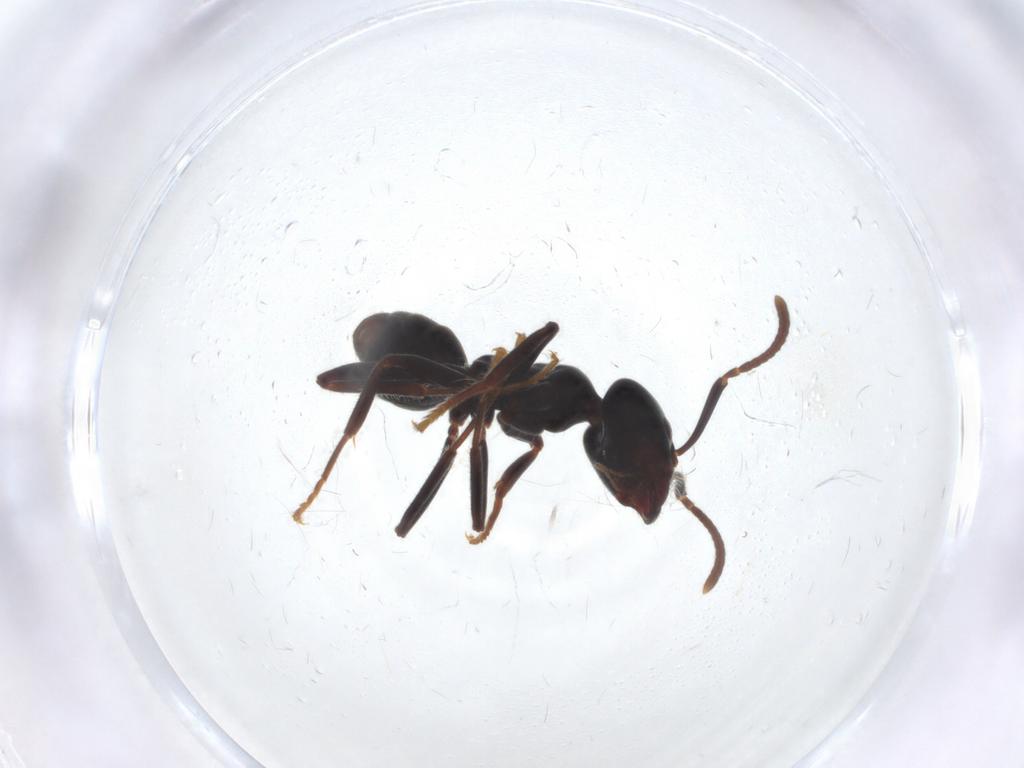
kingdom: Animalia
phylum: Arthropoda
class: Insecta
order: Hymenoptera
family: Formicidae
